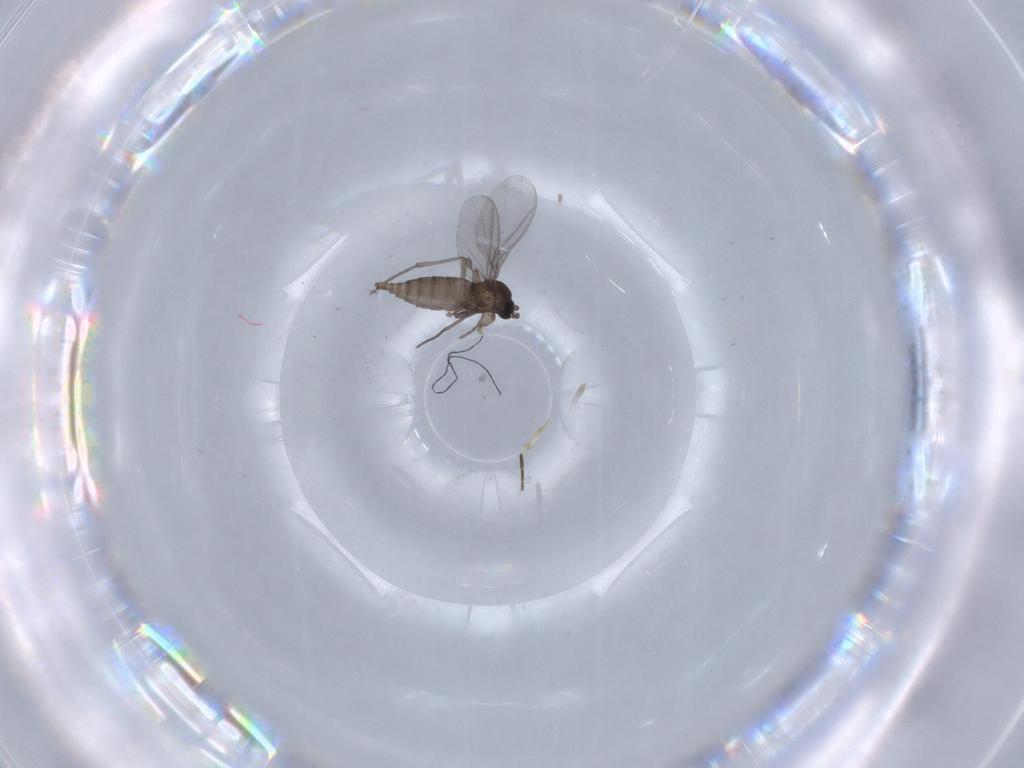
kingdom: Animalia
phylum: Arthropoda
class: Insecta
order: Diptera
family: Sciaridae
